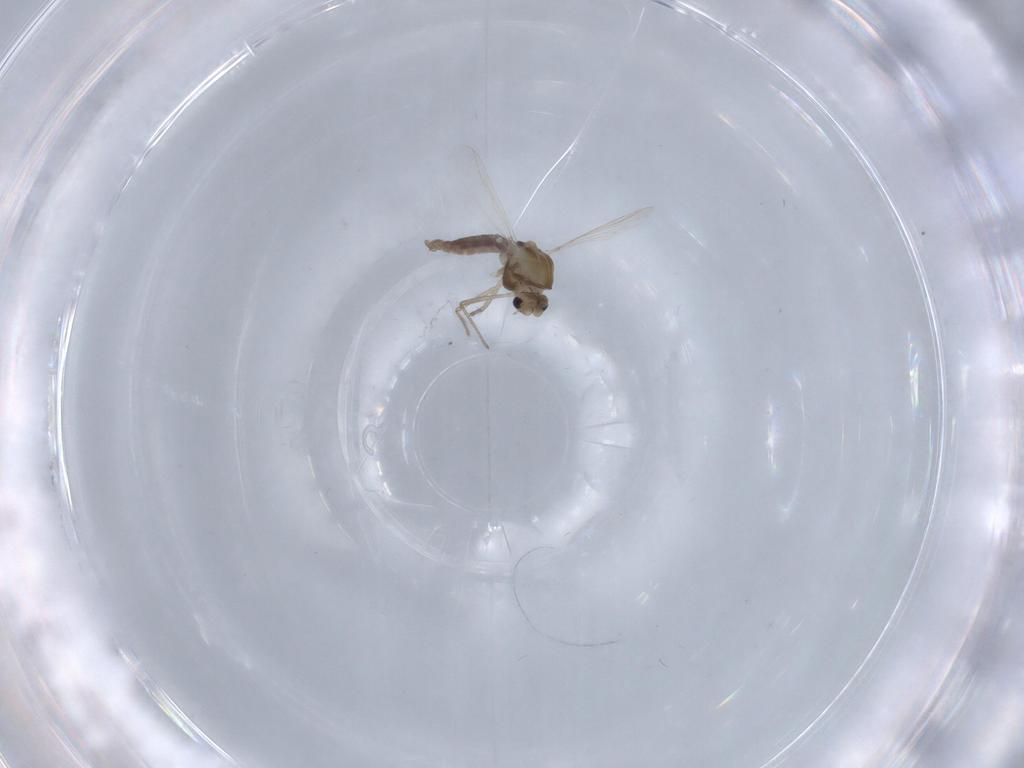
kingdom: Animalia
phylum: Arthropoda
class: Insecta
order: Diptera
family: Chironomidae
